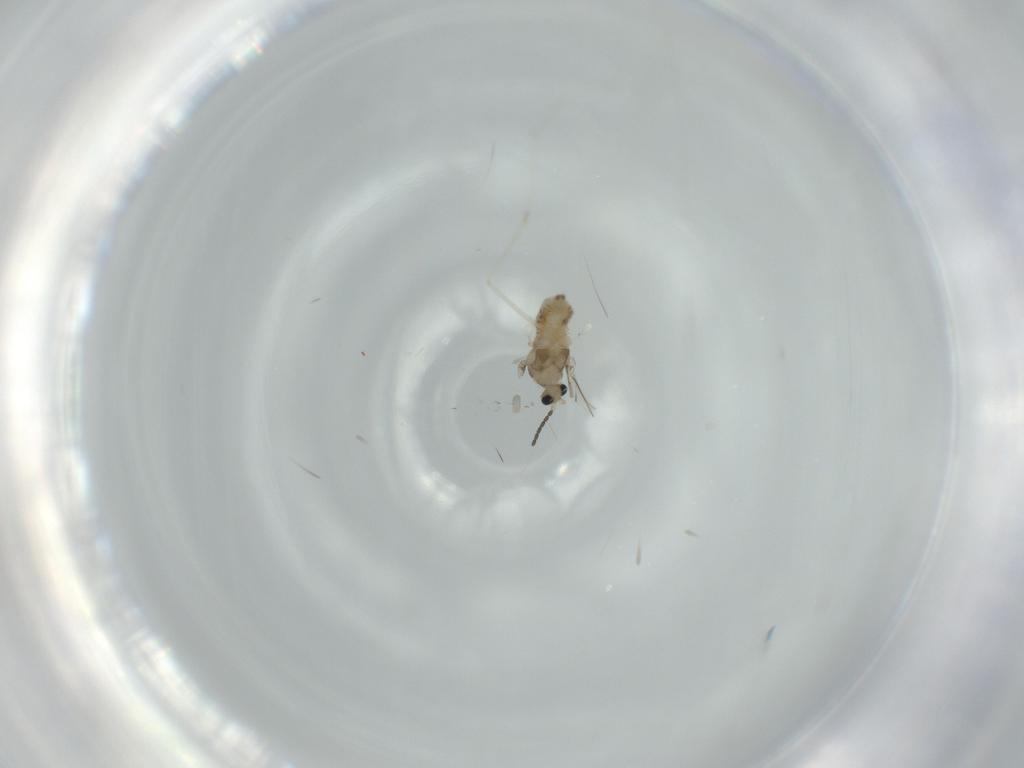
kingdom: Animalia
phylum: Arthropoda
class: Insecta
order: Diptera
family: Cecidomyiidae
